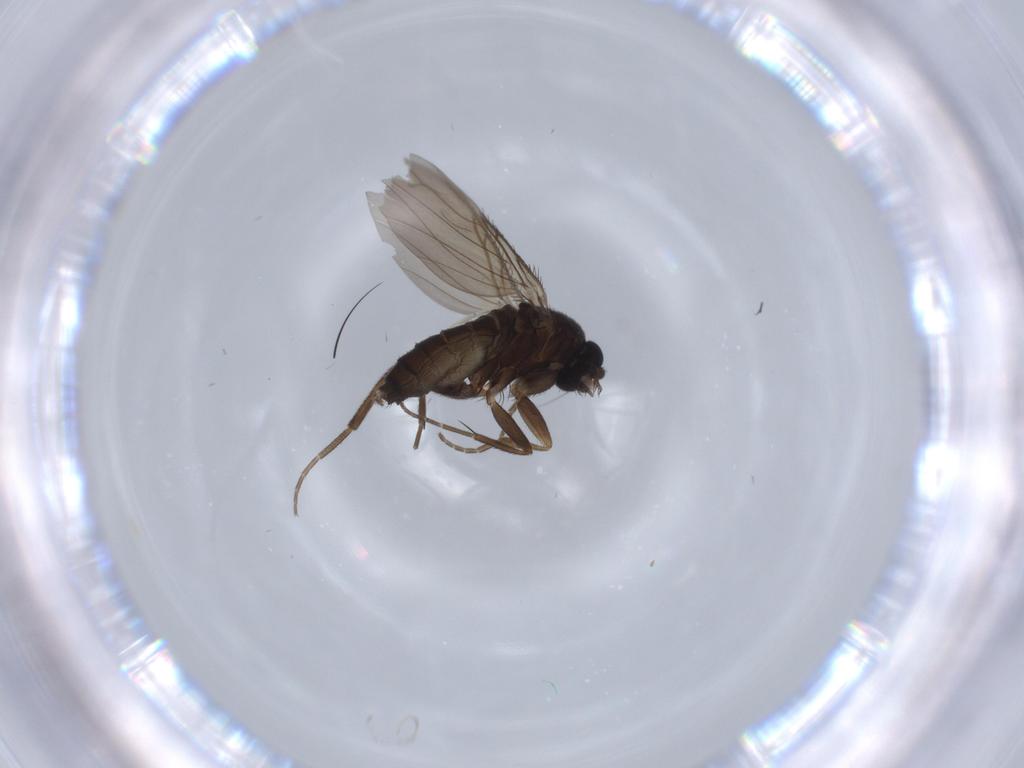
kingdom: Animalia
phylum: Arthropoda
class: Insecta
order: Diptera
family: Phoridae
